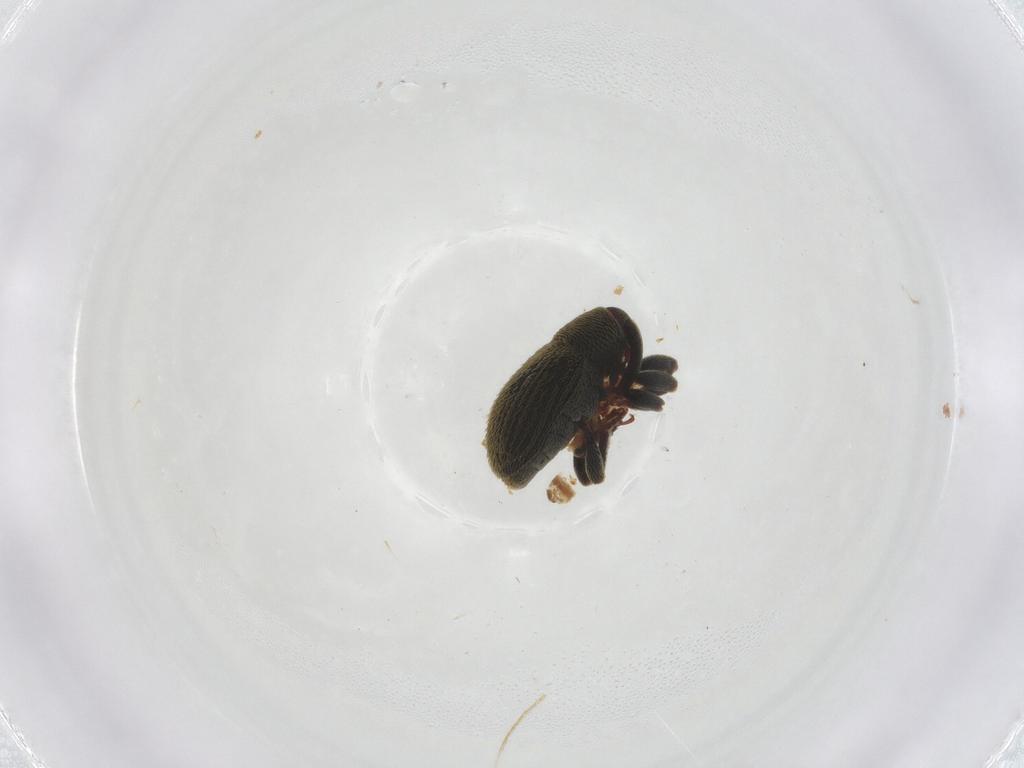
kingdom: Animalia
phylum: Arthropoda
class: Insecta
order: Coleoptera
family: Curculionidae
